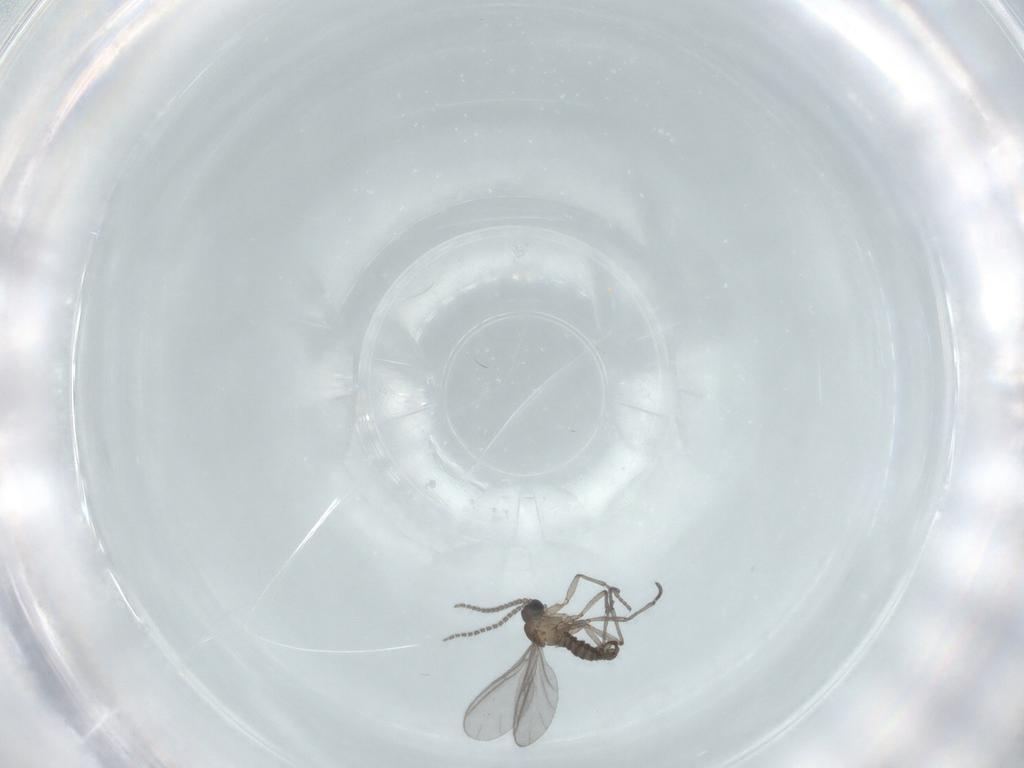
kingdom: Animalia
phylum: Arthropoda
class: Insecta
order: Diptera
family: Sciaridae
